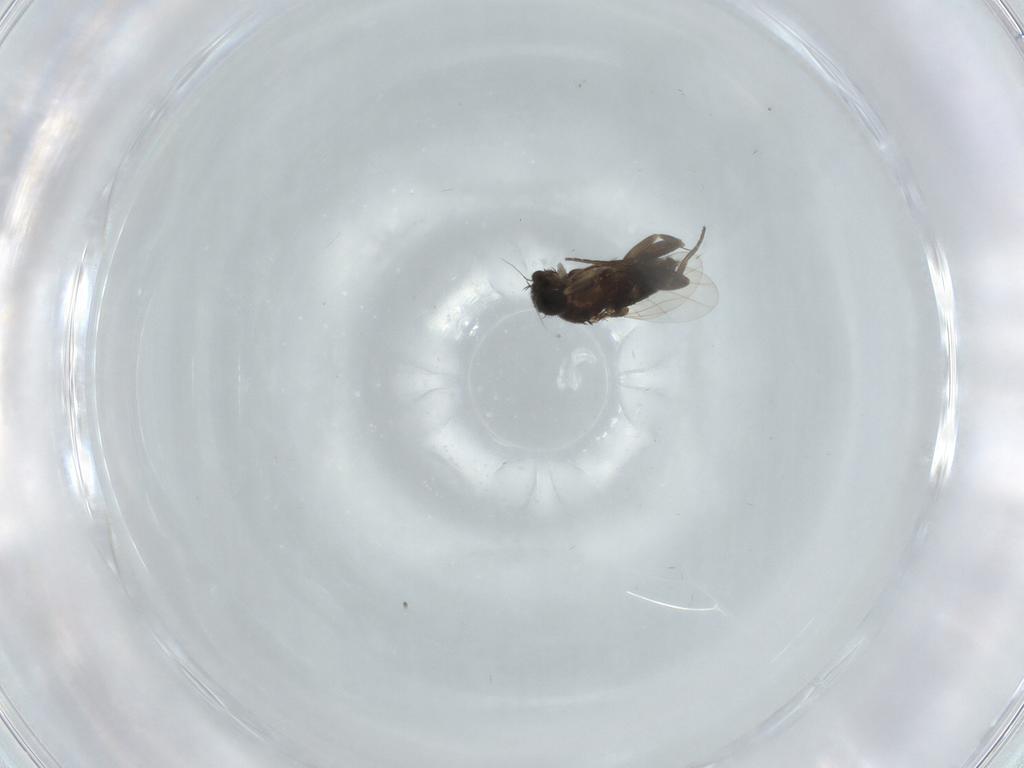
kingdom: Animalia
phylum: Arthropoda
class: Insecta
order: Diptera
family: Phoridae
